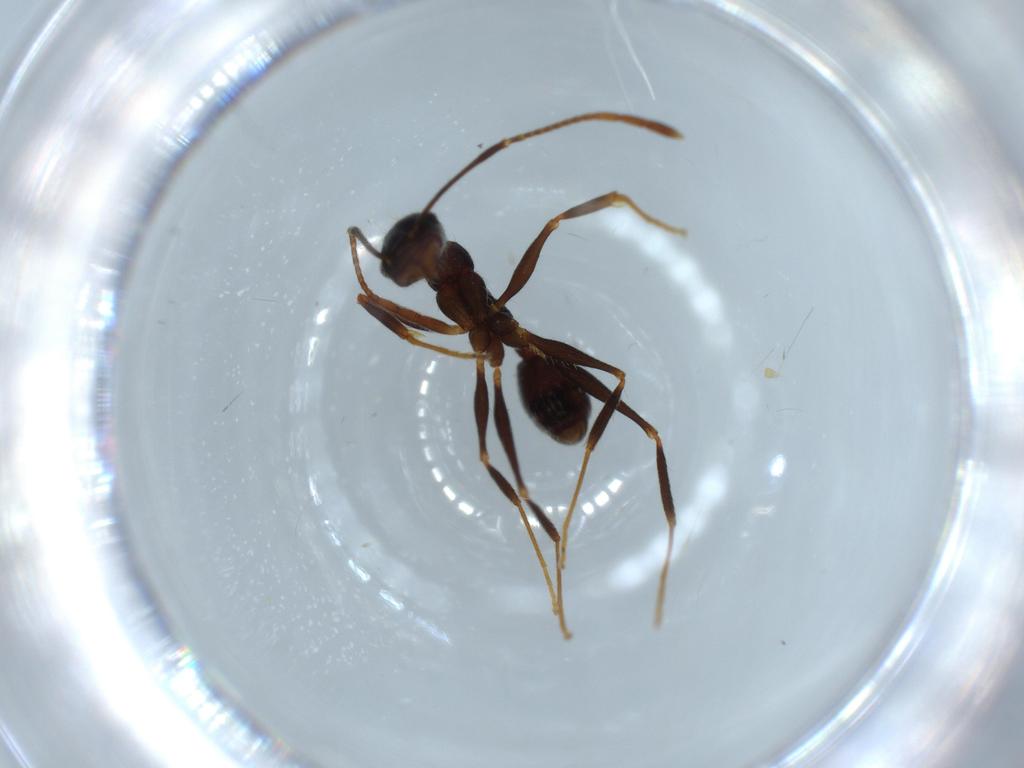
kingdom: Animalia
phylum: Arthropoda
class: Insecta
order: Hymenoptera
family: Formicidae
